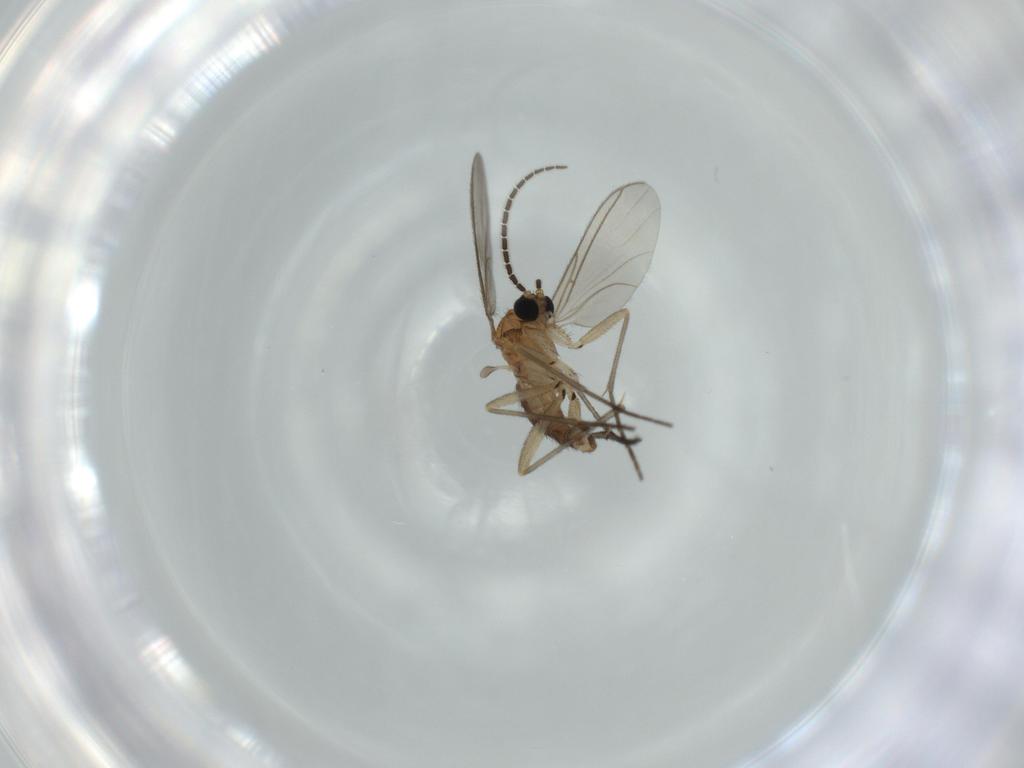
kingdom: Animalia
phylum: Arthropoda
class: Insecta
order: Diptera
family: Sciaridae
